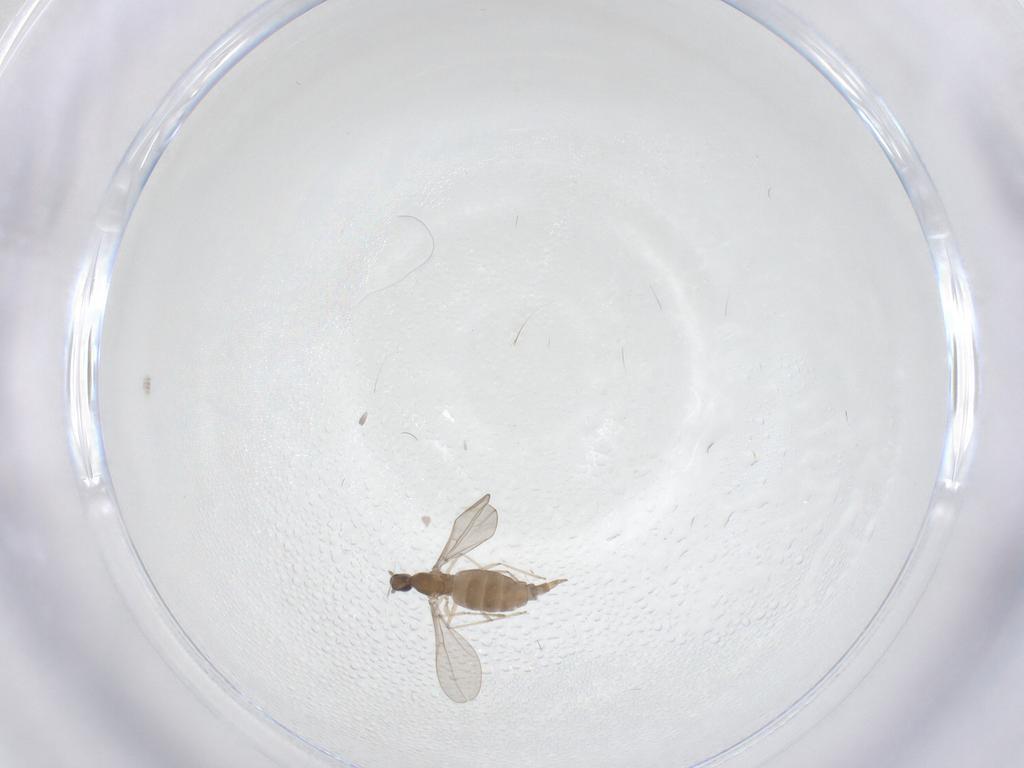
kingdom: Animalia
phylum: Arthropoda
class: Insecta
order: Diptera
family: Cecidomyiidae
